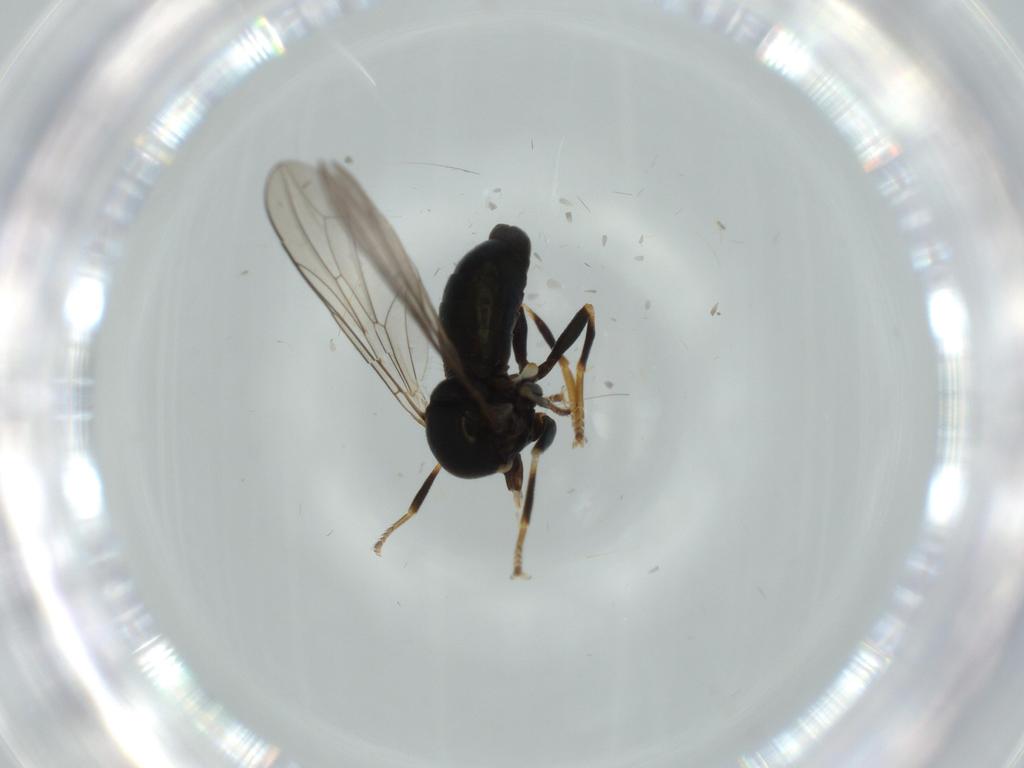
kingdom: Animalia
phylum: Arthropoda
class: Insecta
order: Diptera
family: Pipunculidae
